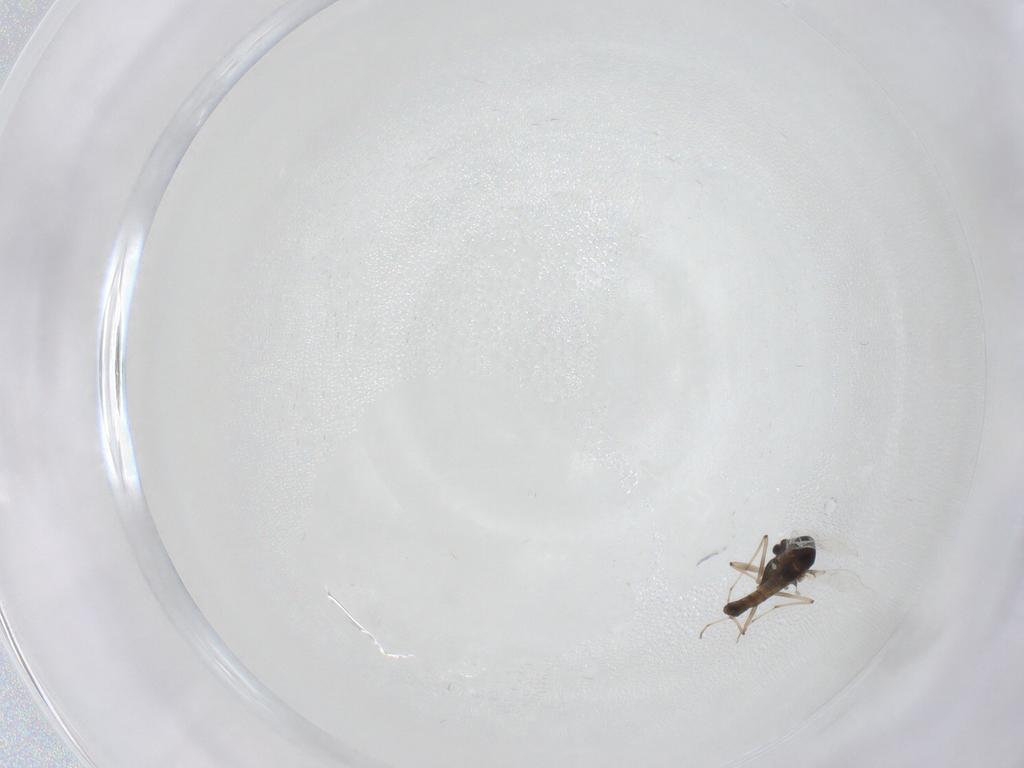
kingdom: Animalia
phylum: Arthropoda
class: Insecta
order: Diptera
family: Chironomidae
